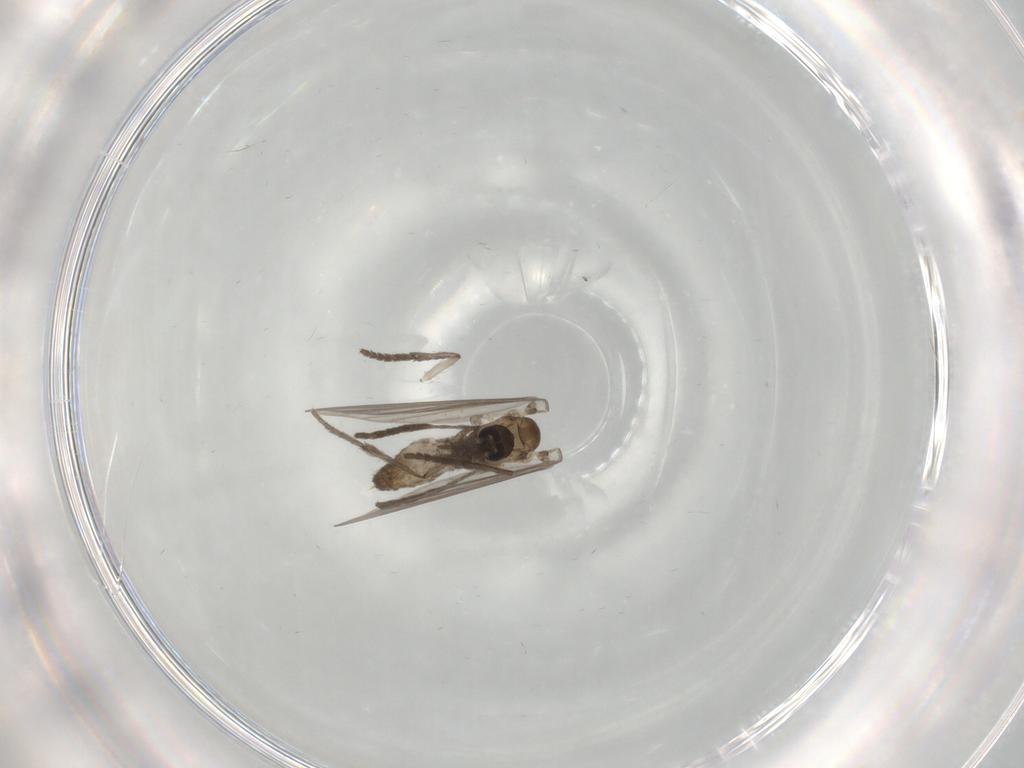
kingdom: Animalia
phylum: Arthropoda
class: Insecta
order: Diptera
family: Psychodidae
